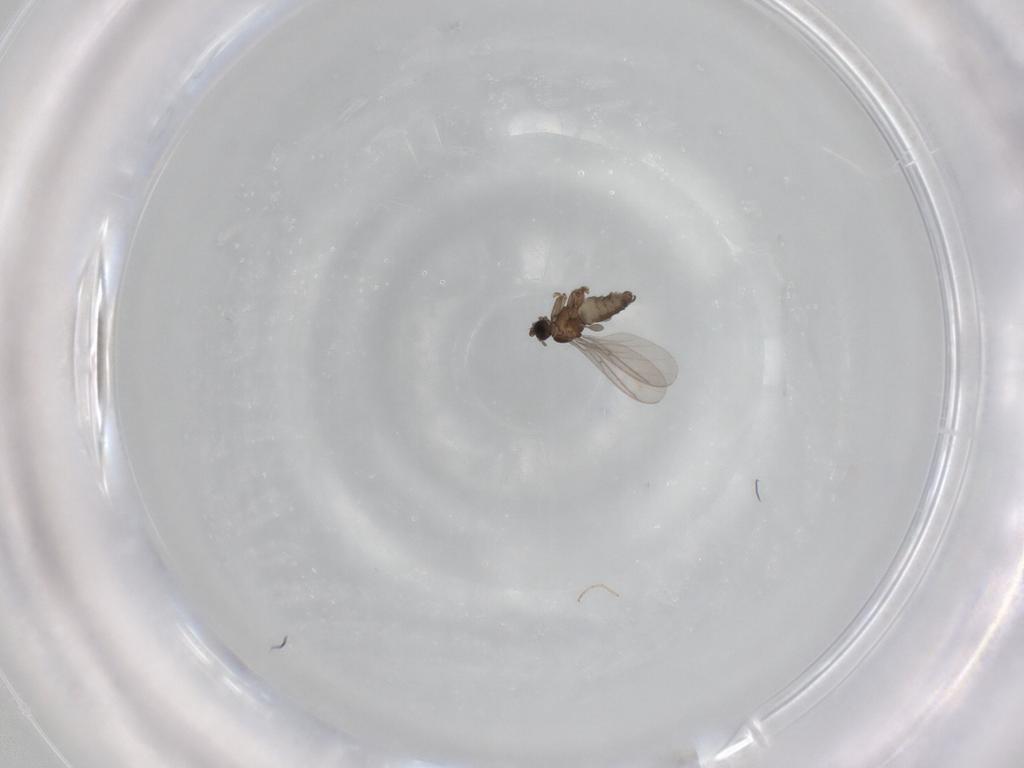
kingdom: Animalia
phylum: Arthropoda
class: Insecta
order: Diptera
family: Sciaridae
